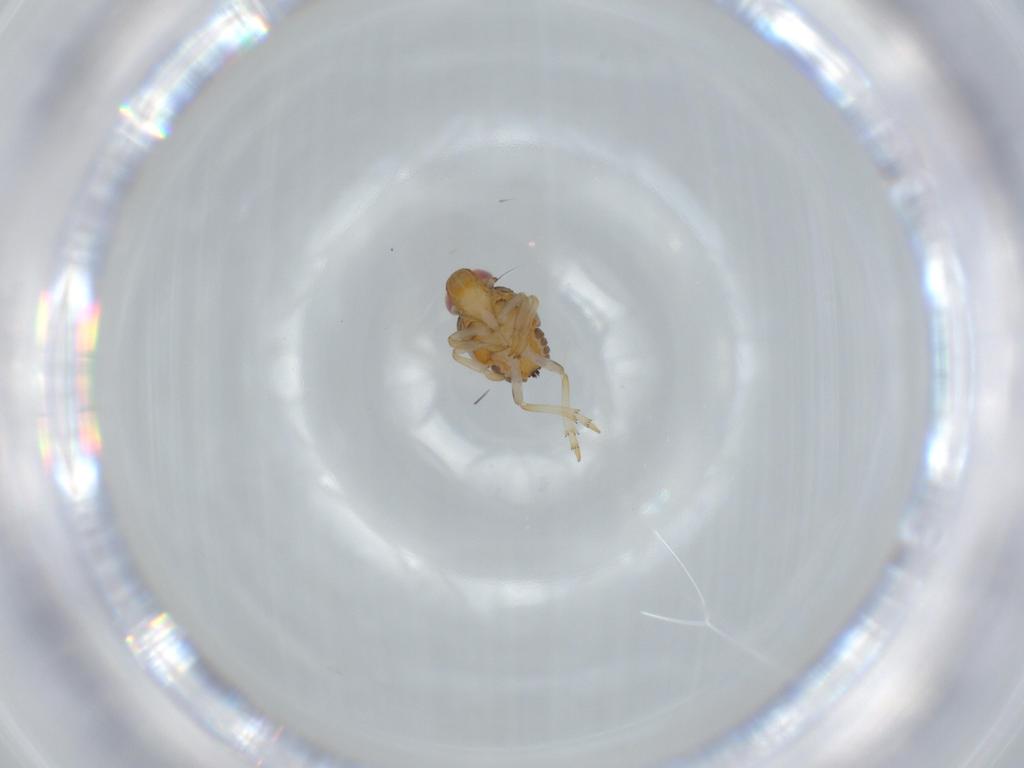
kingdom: Animalia
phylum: Arthropoda
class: Insecta
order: Hemiptera
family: Issidae
